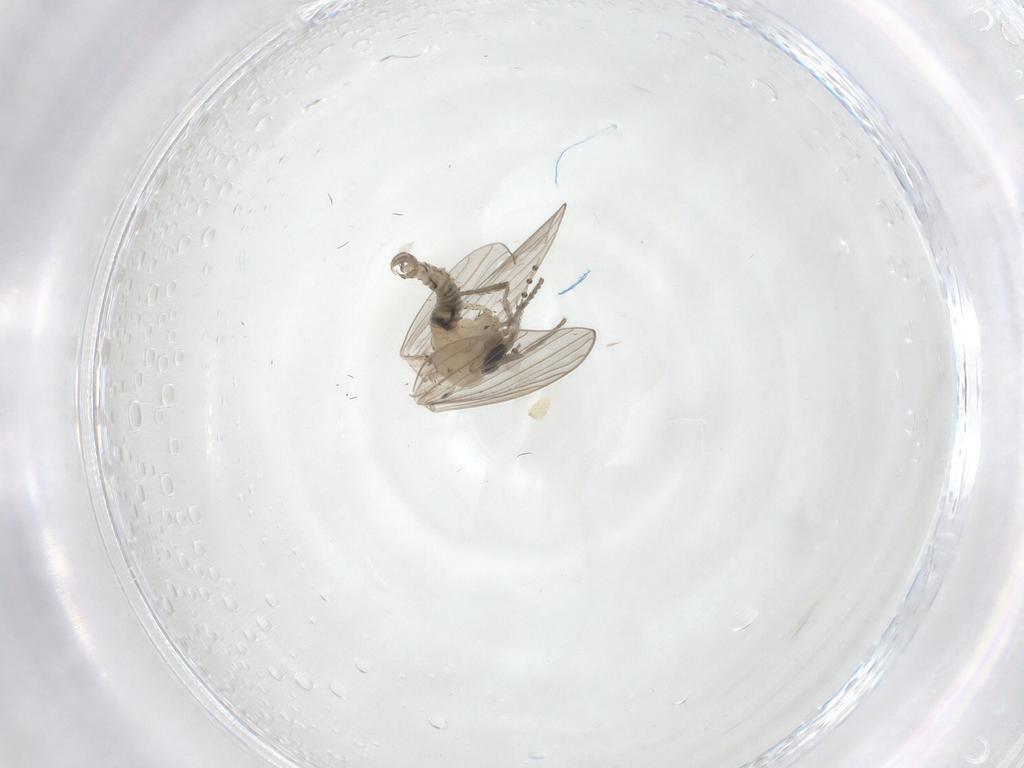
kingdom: Animalia
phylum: Arthropoda
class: Insecta
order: Diptera
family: Psychodidae
